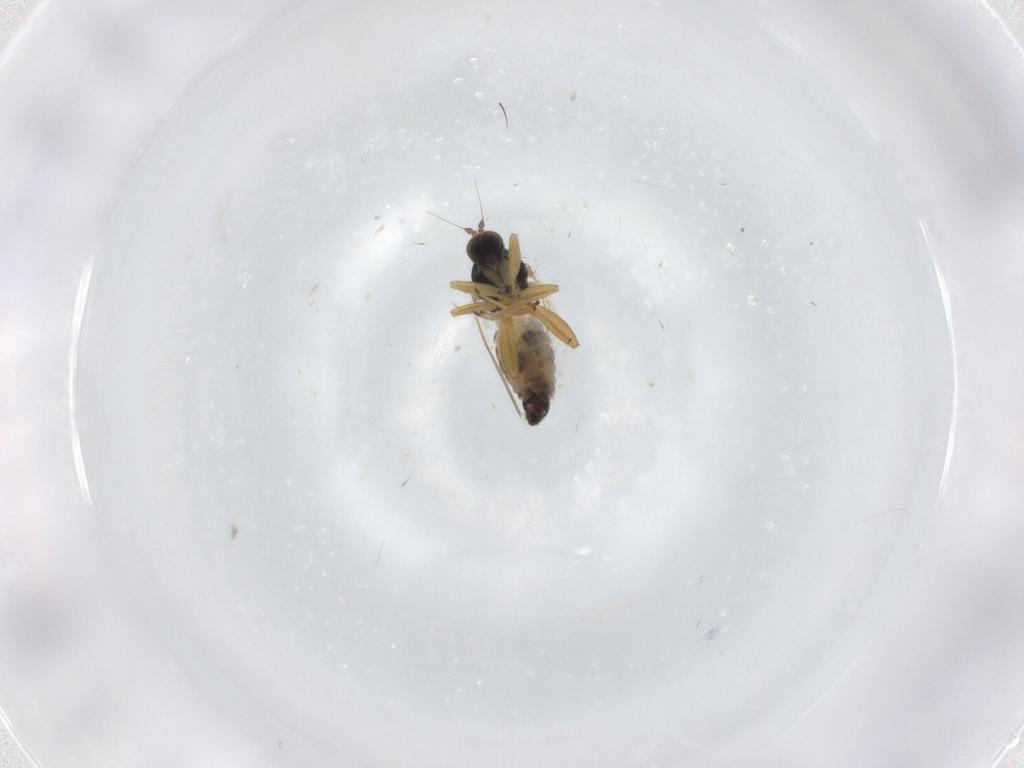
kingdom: Animalia
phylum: Arthropoda
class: Insecta
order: Diptera
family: Hybotidae
